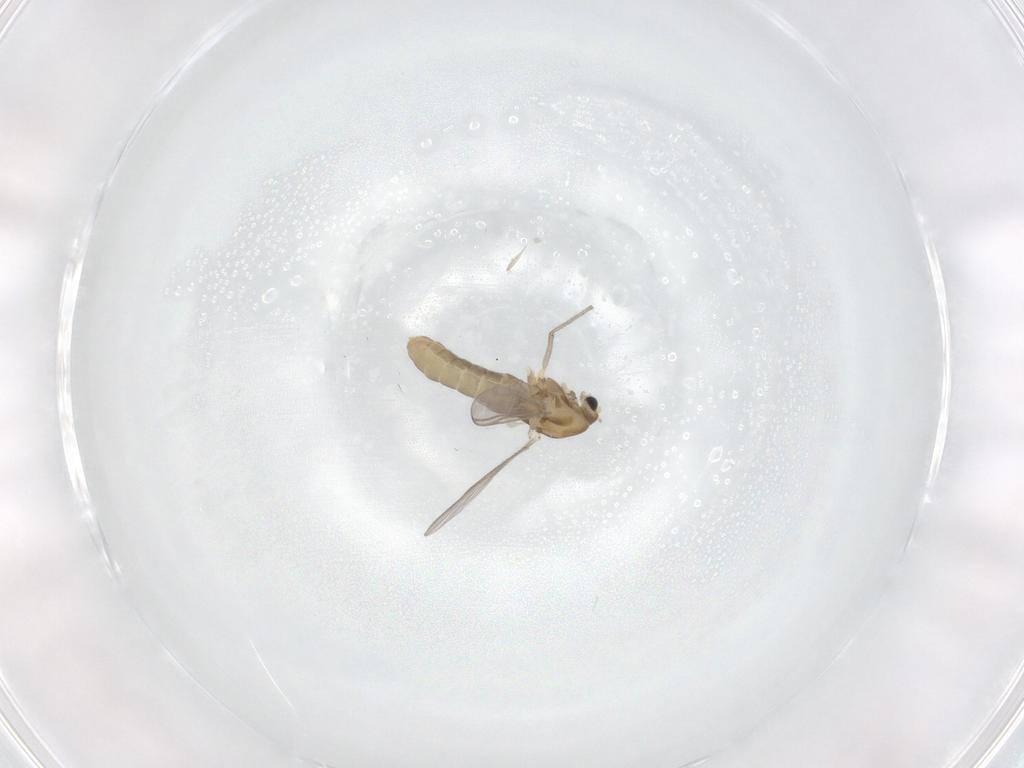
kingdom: Animalia
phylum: Arthropoda
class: Insecta
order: Diptera
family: Chironomidae
